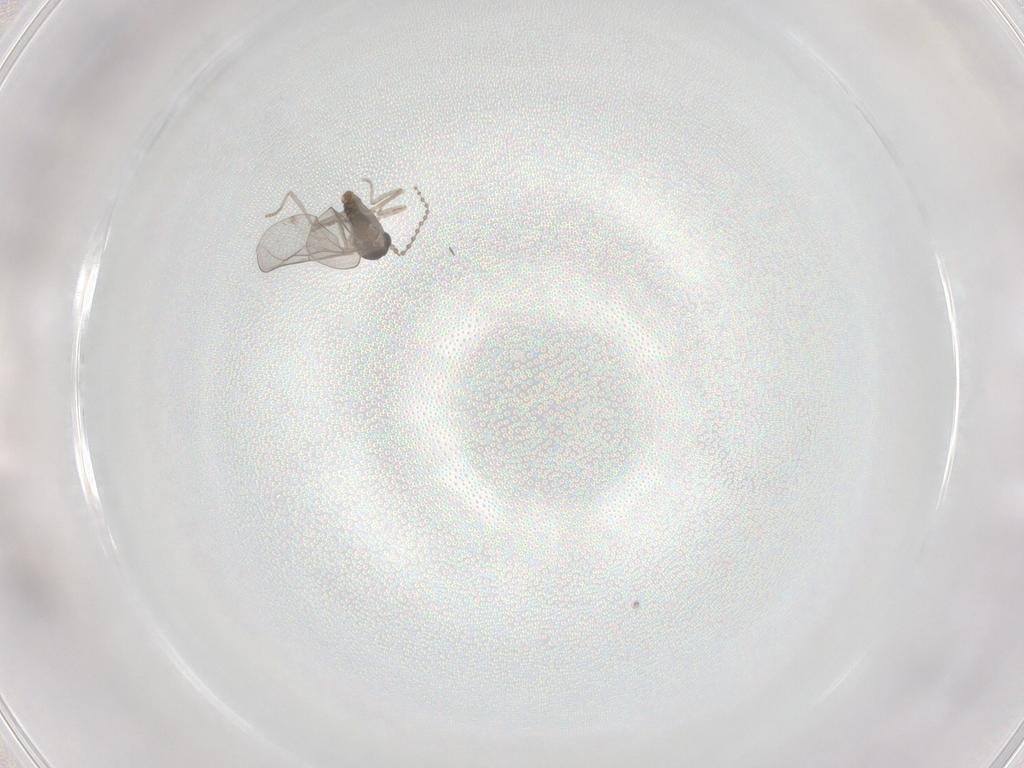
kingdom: Animalia
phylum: Arthropoda
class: Insecta
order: Diptera
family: Cecidomyiidae
